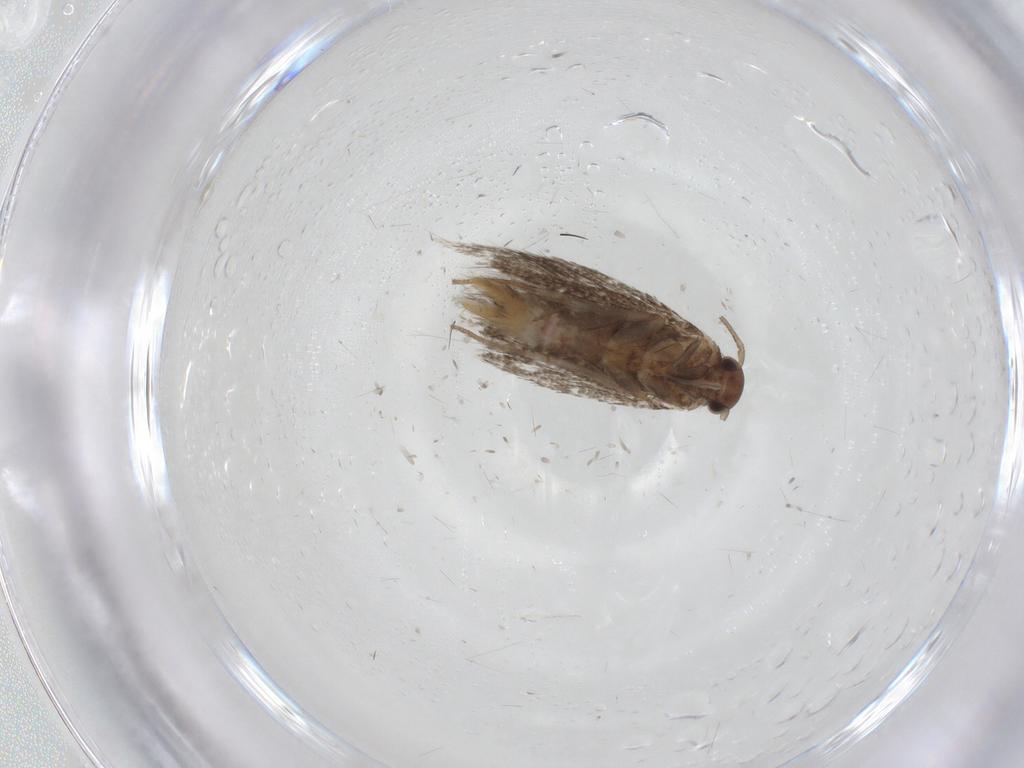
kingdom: Animalia
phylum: Arthropoda
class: Insecta
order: Lepidoptera
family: Elachistidae
